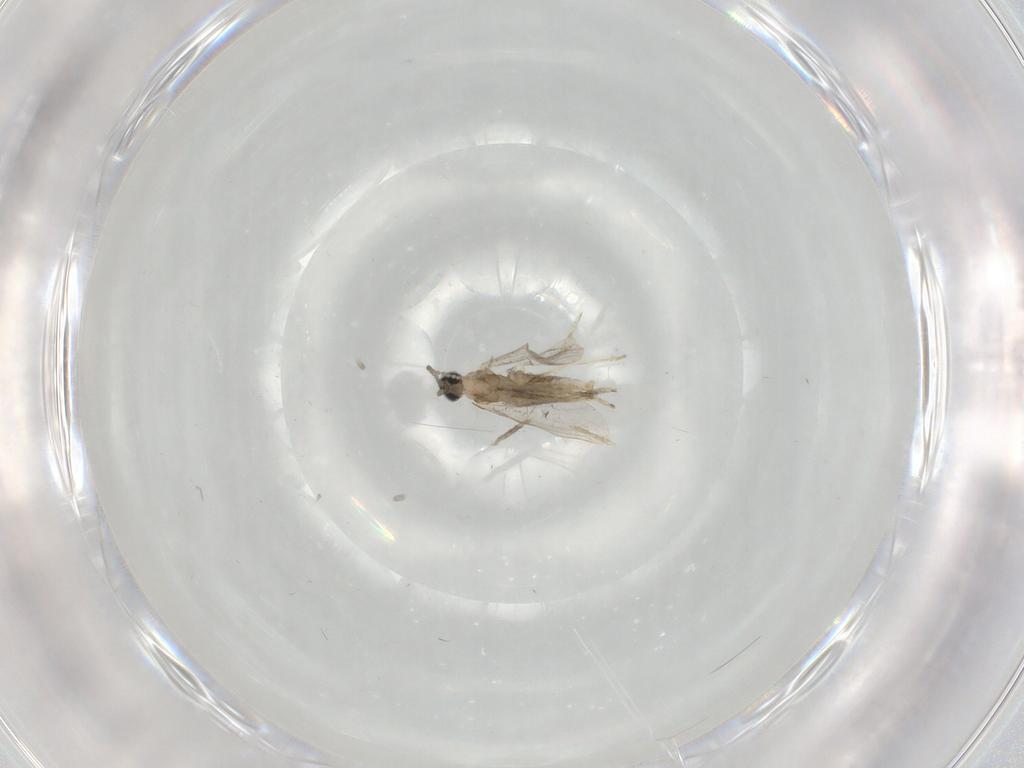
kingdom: Animalia
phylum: Arthropoda
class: Insecta
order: Diptera
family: Cecidomyiidae
